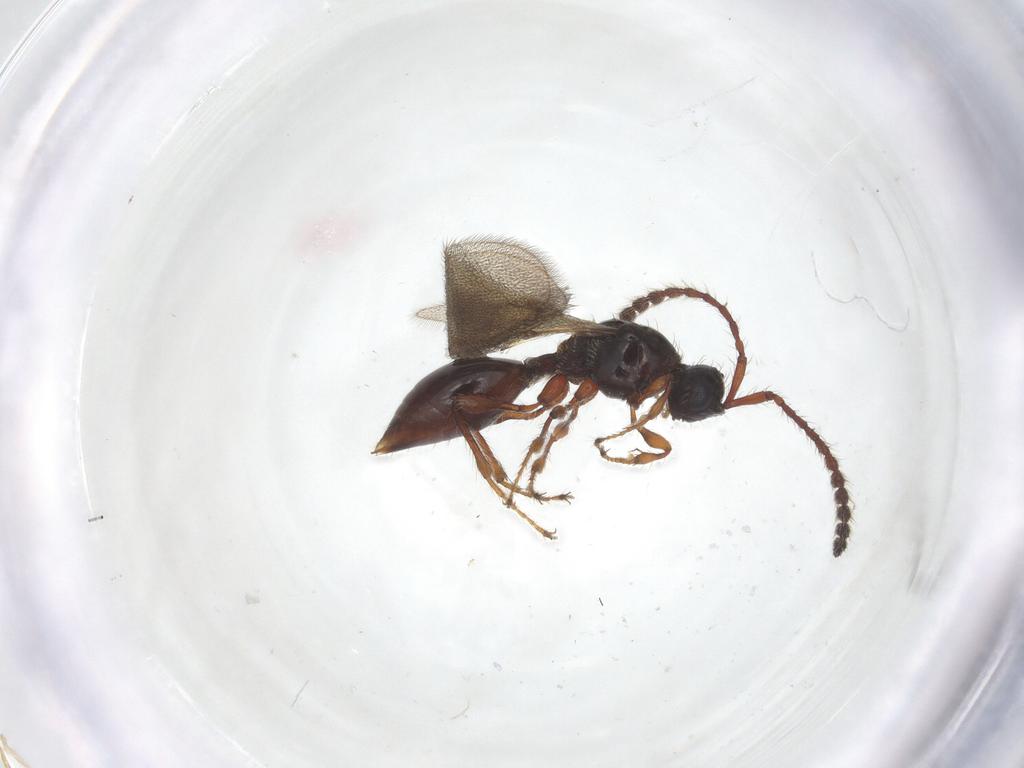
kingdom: Animalia
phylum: Arthropoda
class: Insecta
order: Hymenoptera
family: Diapriidae
